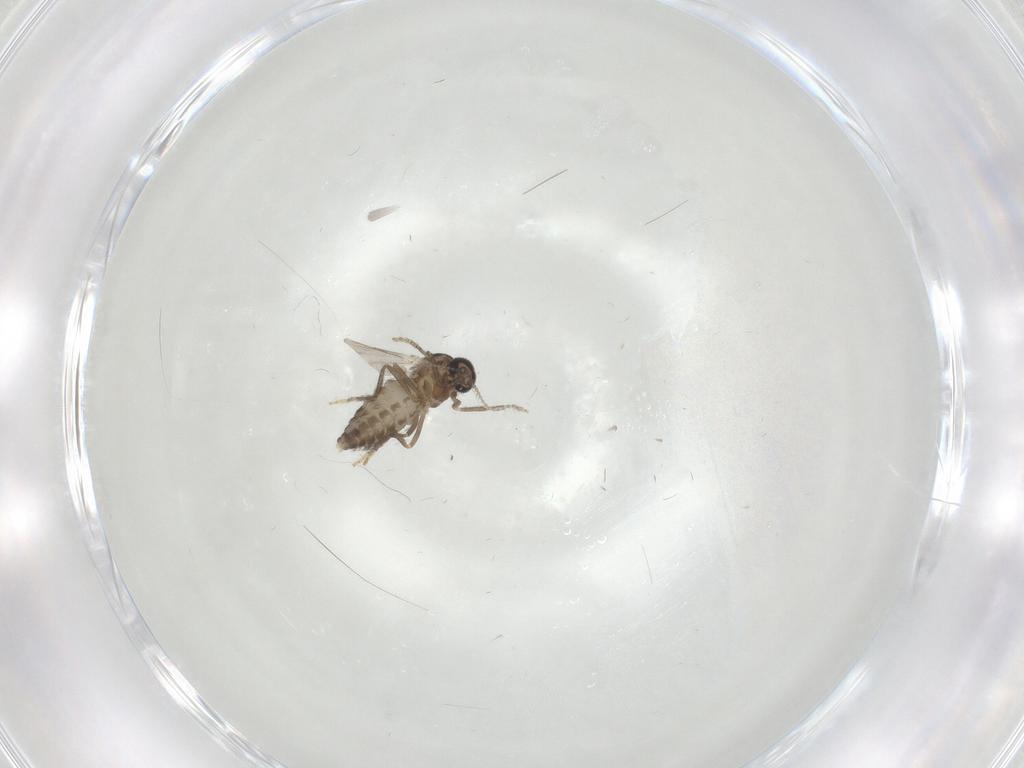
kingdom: Animalia
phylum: Arthropoda
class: Insecta
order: Diptera
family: Ceratopogonidae
